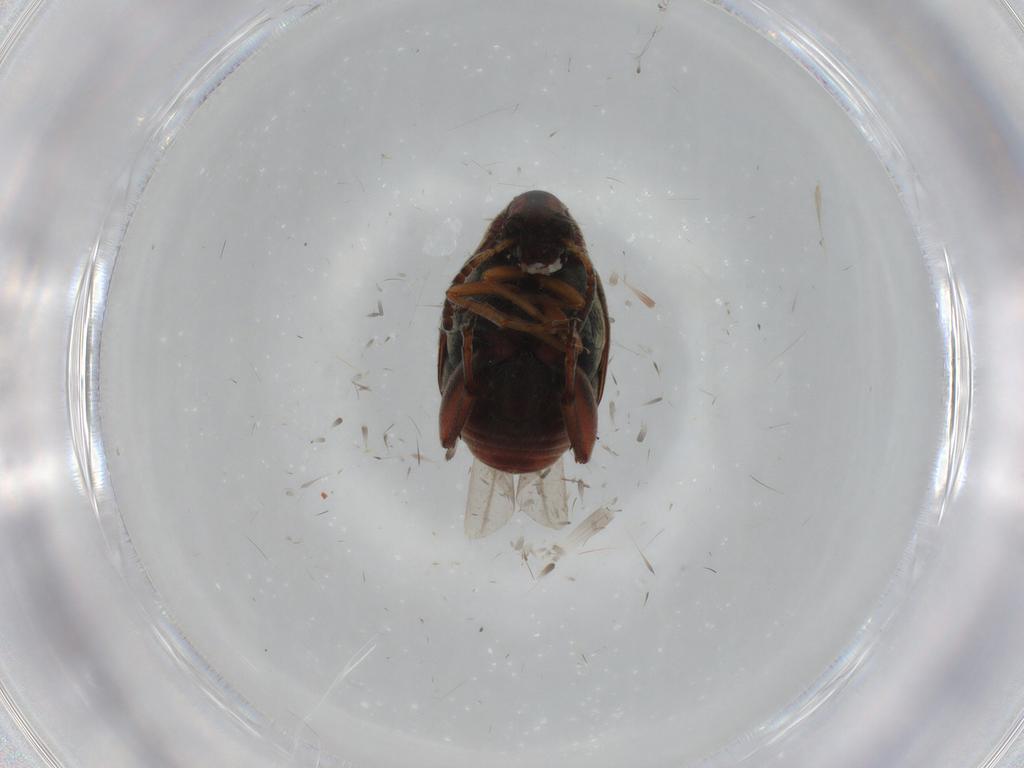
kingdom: Animalia
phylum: Arthropoda
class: Insecta
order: Coleoptera
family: Chrysomelidae
